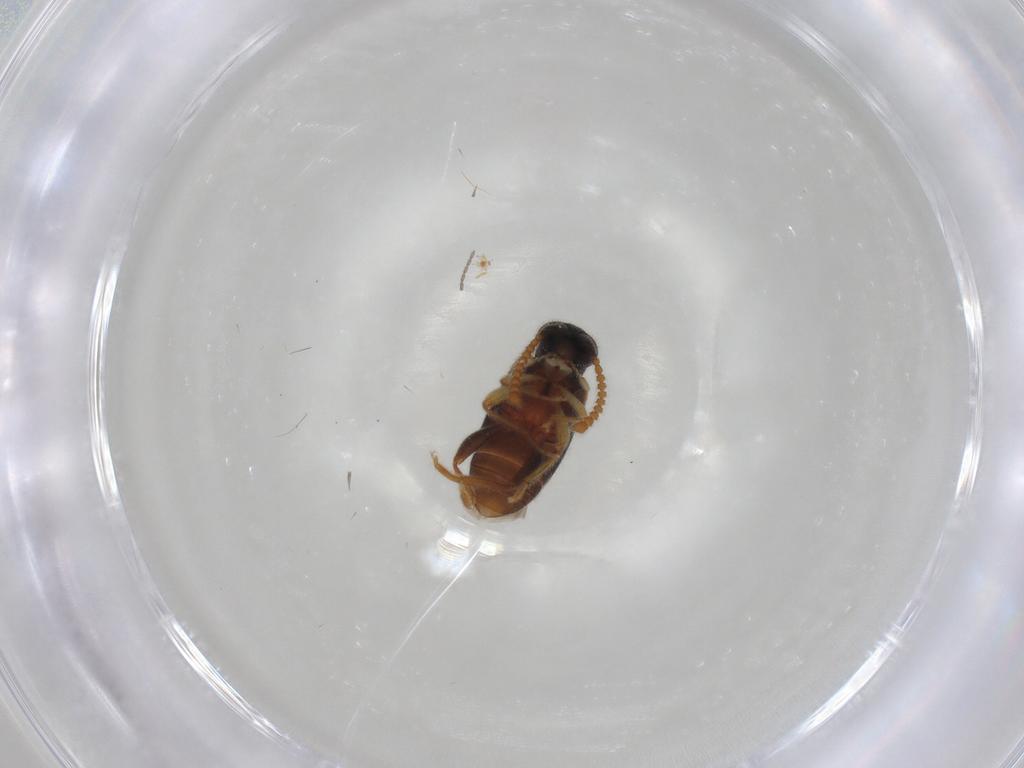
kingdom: Animalia
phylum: Arthropoda
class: Insecta
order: Coleoptera
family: Aderidae
